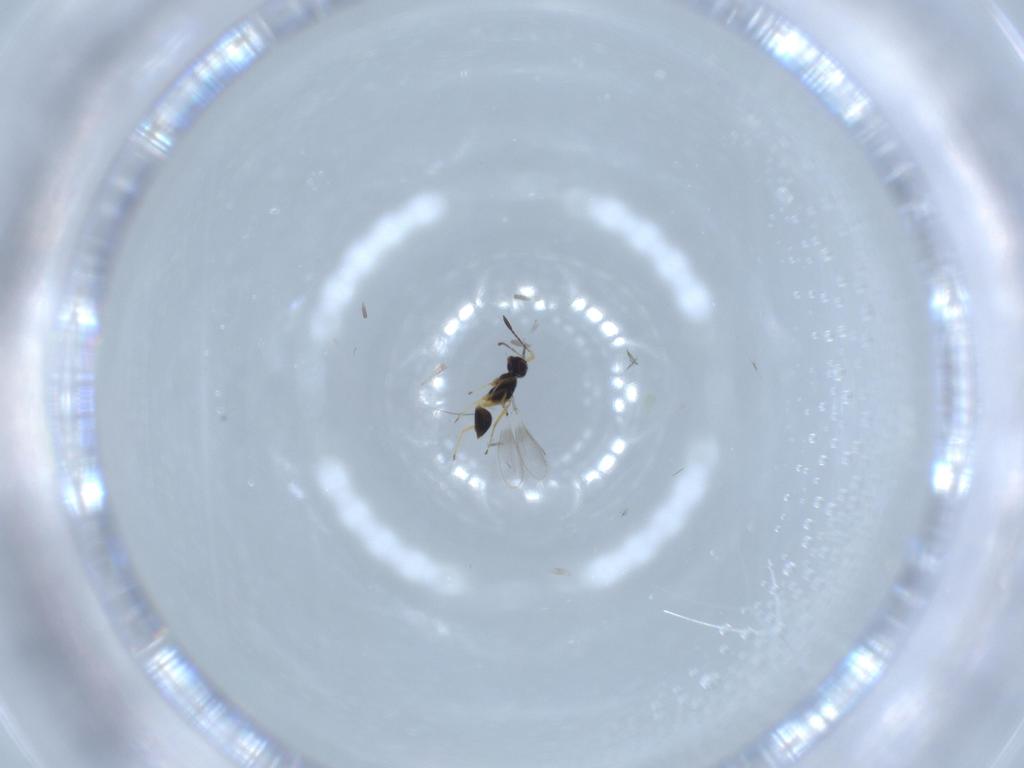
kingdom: Animalia
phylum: Arthropoda
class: Insecta
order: Hymenoptera
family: Mymaridae
